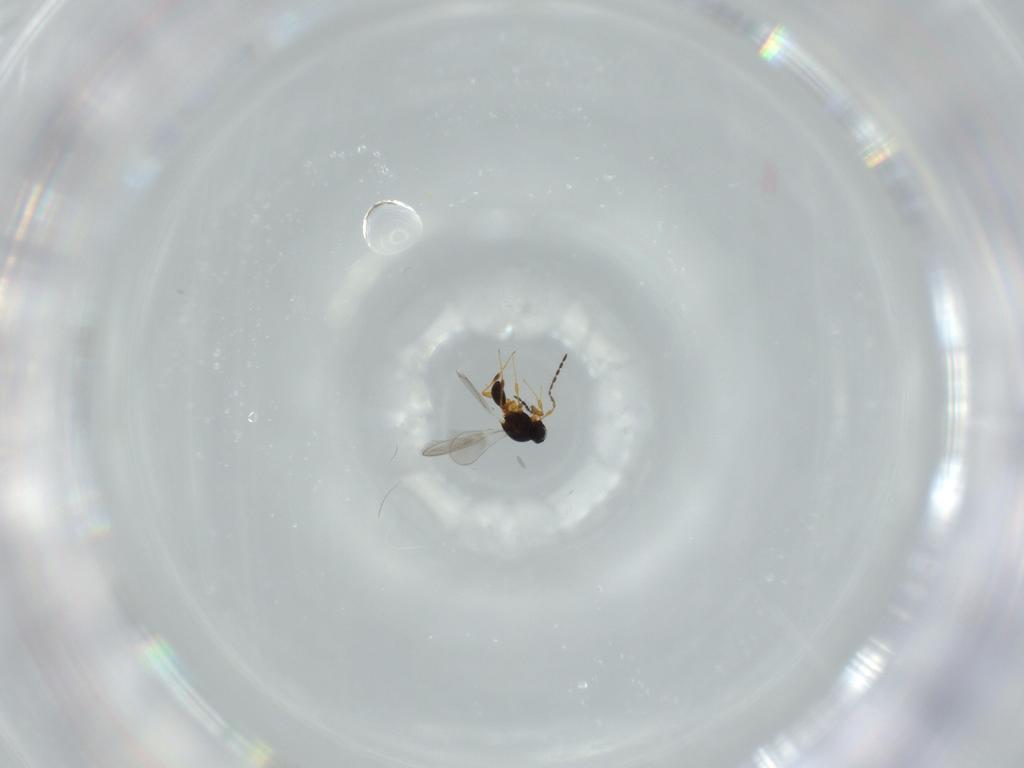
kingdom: Animalia
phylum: Arthropoda
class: Insecta
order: Hymenoptera
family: Platygastridae
